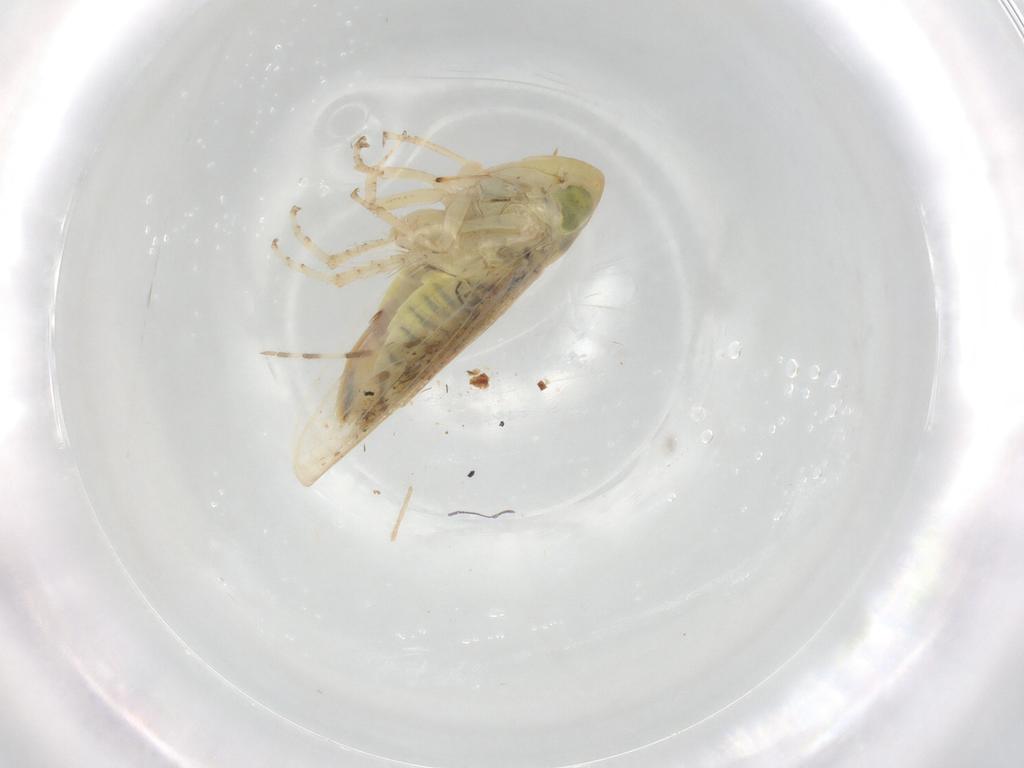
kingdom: Animalia
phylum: Arthropoda
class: Insecta
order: Hemiptera
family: Cicadellidae
